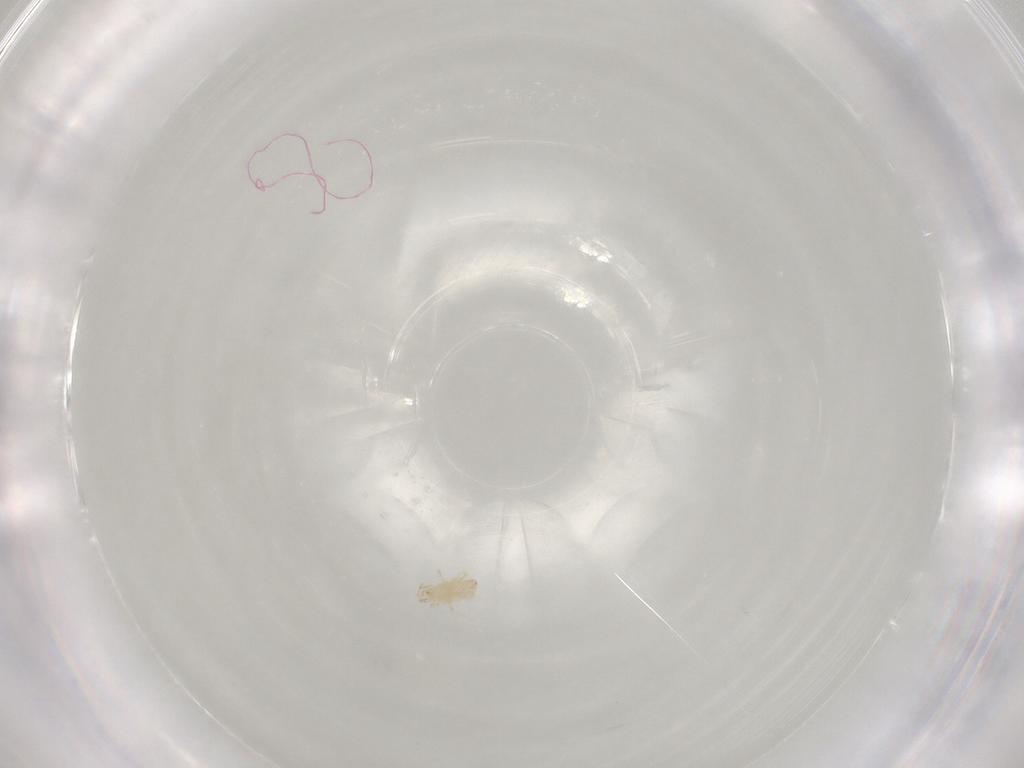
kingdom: Animalia
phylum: Arthropoda
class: Arachnida
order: Mesostigmata
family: Phytoseiidae
